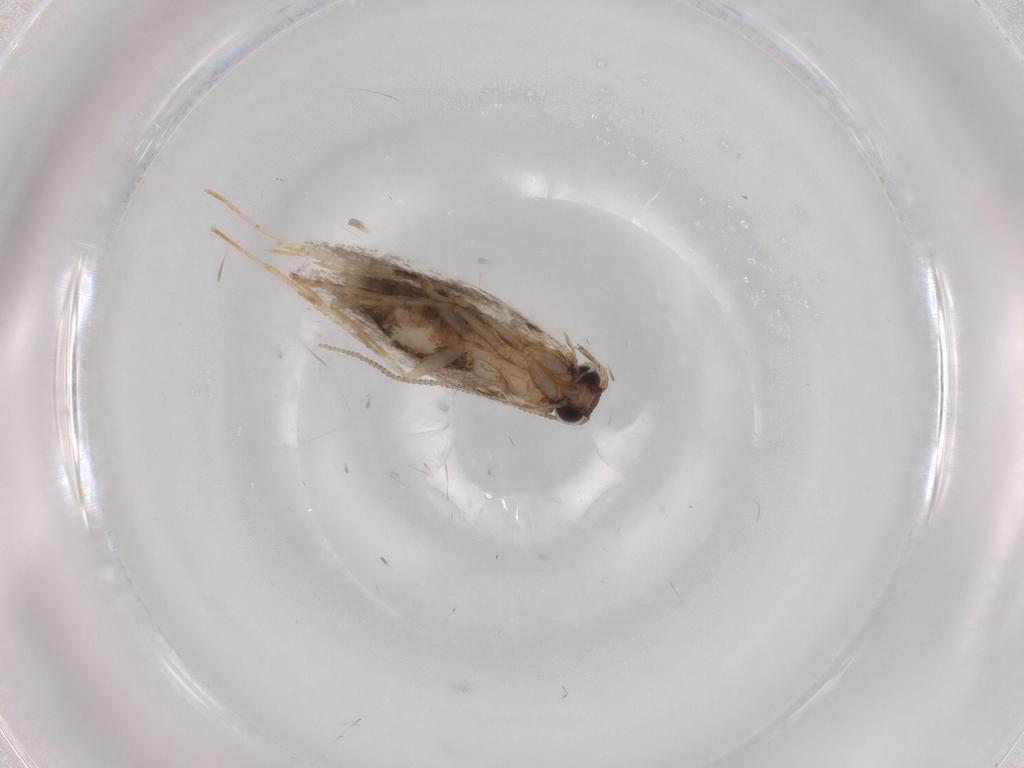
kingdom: Animalia
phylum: Arthropoda
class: Insecta
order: Lepidoptera
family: Tineidae
